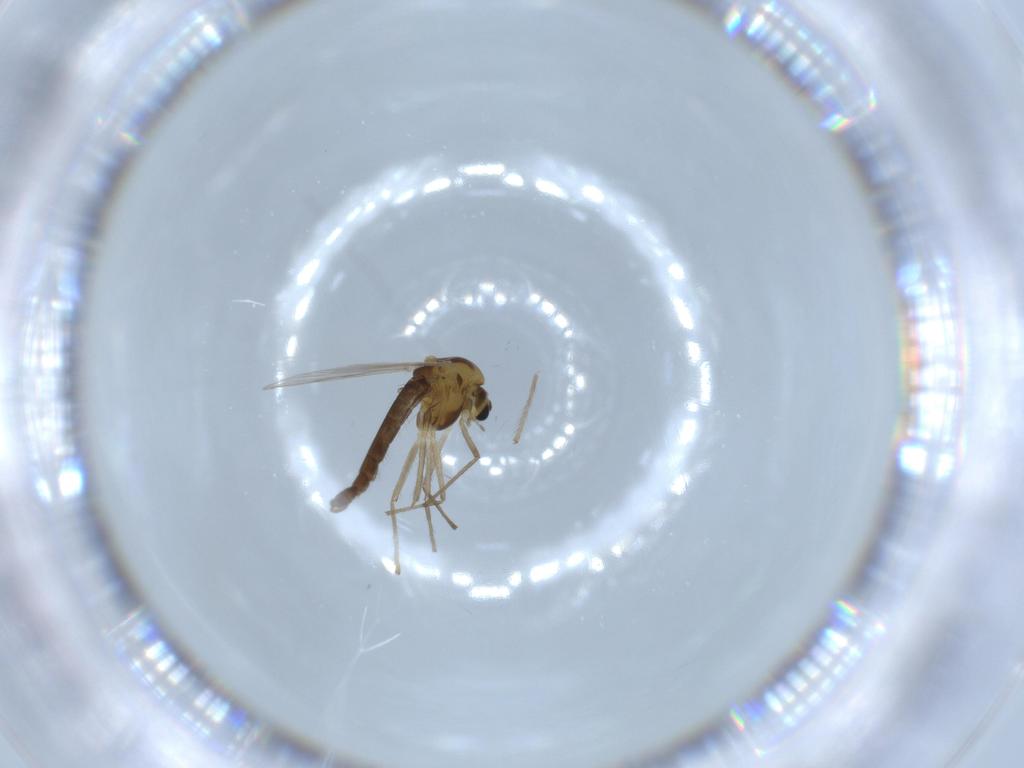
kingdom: Animalia
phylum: Arthropoda
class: Insecta
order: Diptera
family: Chironomidae
